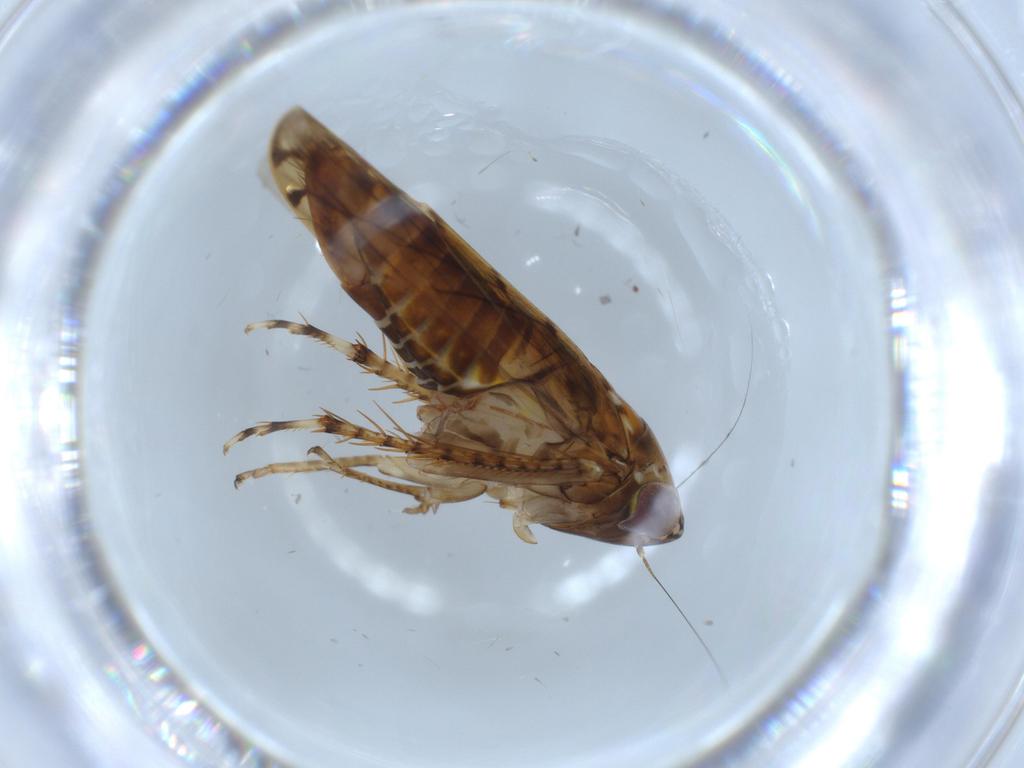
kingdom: Animalia
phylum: Arthropoda
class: Insecta
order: Hemiptera
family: Cicadellidae
